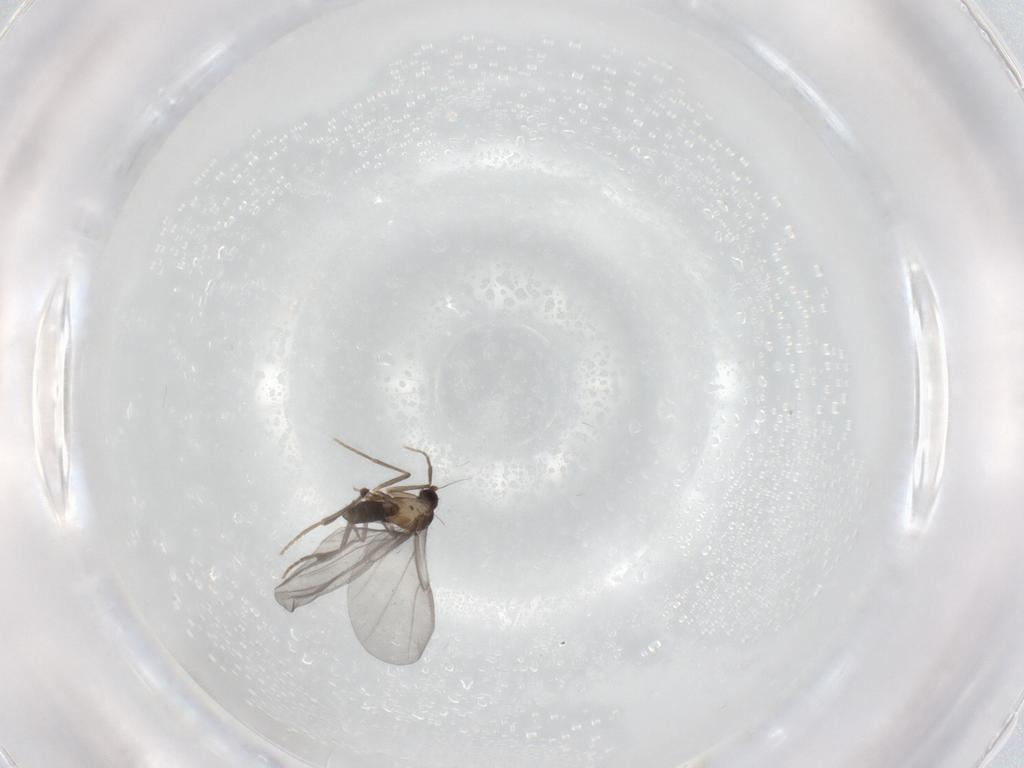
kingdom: Animalia
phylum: Arthropoda
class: Insecta
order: Diptera
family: Phoridae
